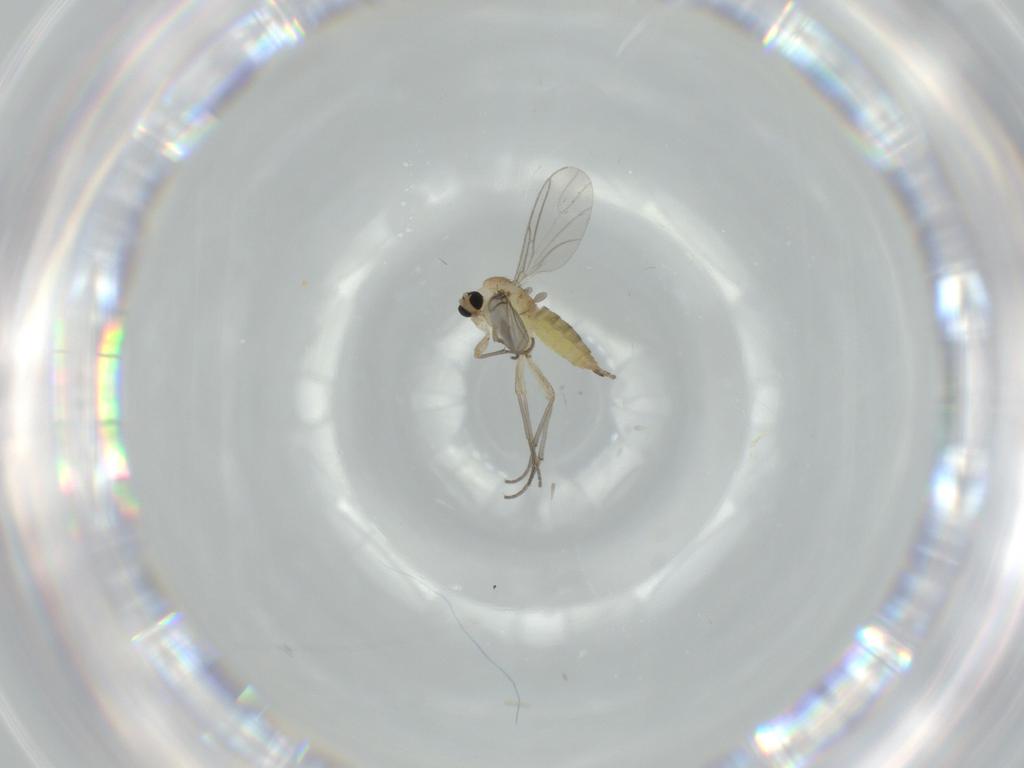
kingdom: Animalia
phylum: Arthropoda
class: Insecta
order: Diptera
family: Sciaridae
